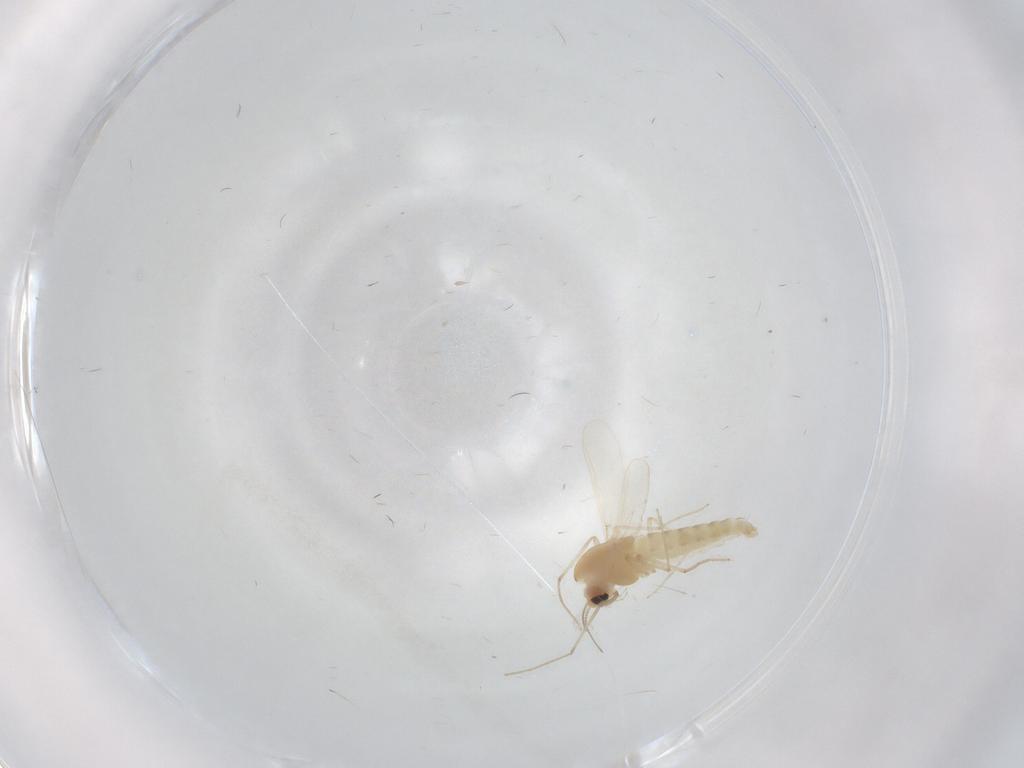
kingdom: Animalia
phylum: Arthropoda
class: Insecta
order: Diptera
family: Chironomidae
